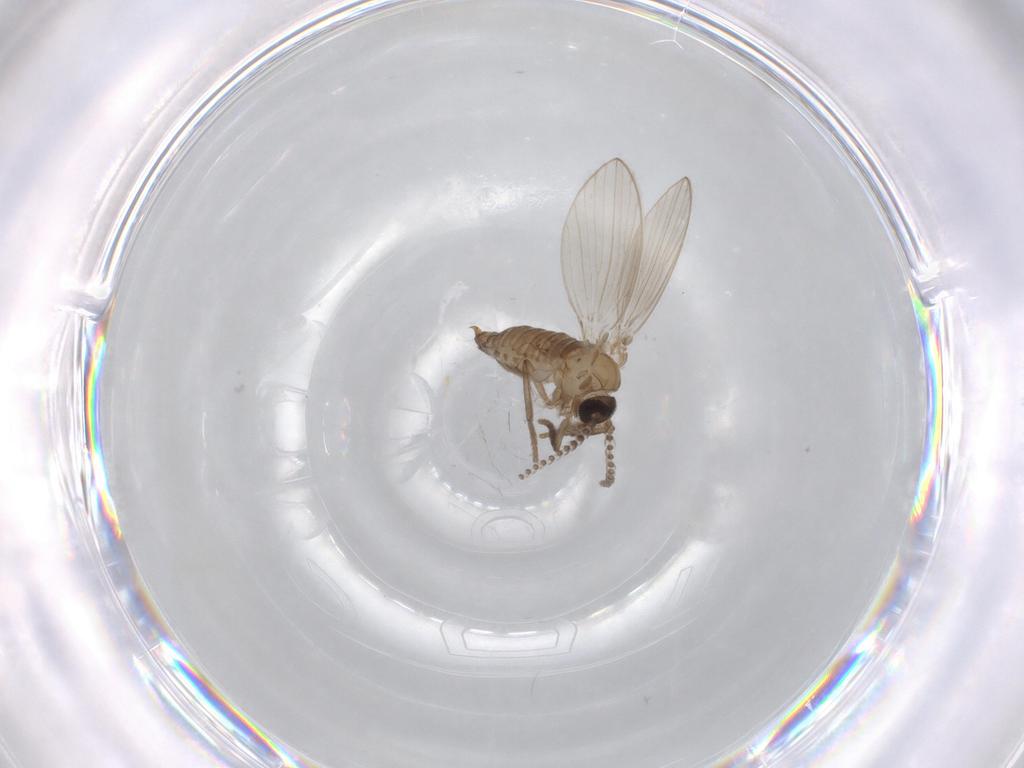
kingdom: Animalia
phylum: Arthropoda
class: Insecta
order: Diptera
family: Psychodidae
